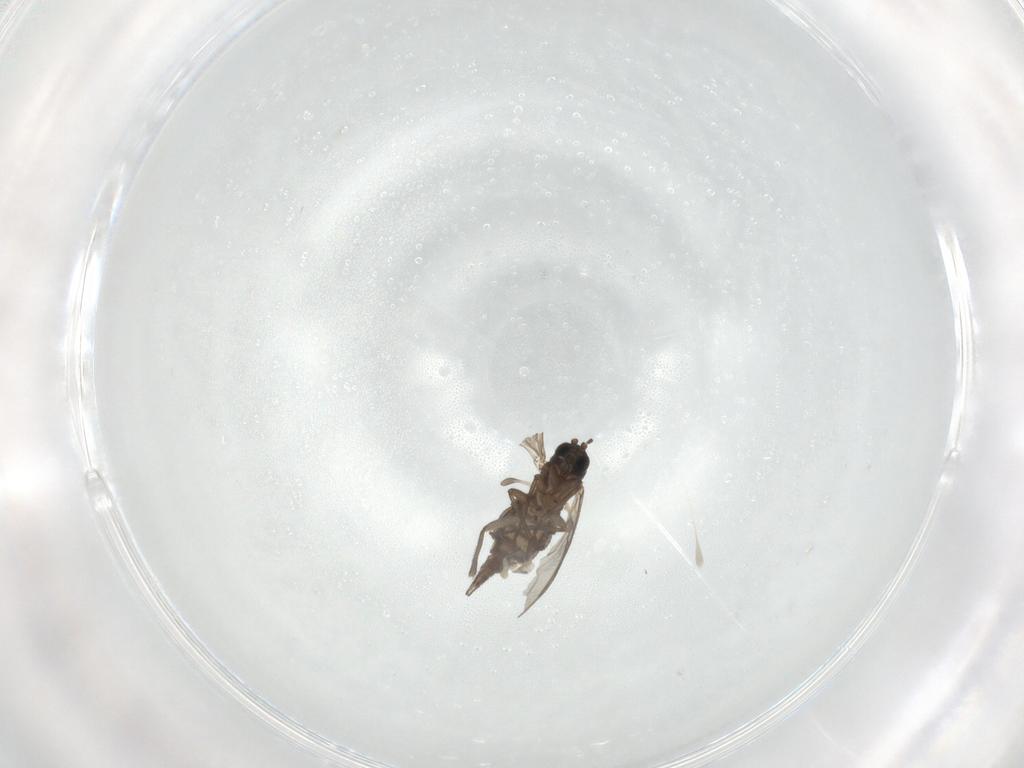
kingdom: Animalia
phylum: Arthropoda
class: Insecta
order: Diptera
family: Sciaridae
